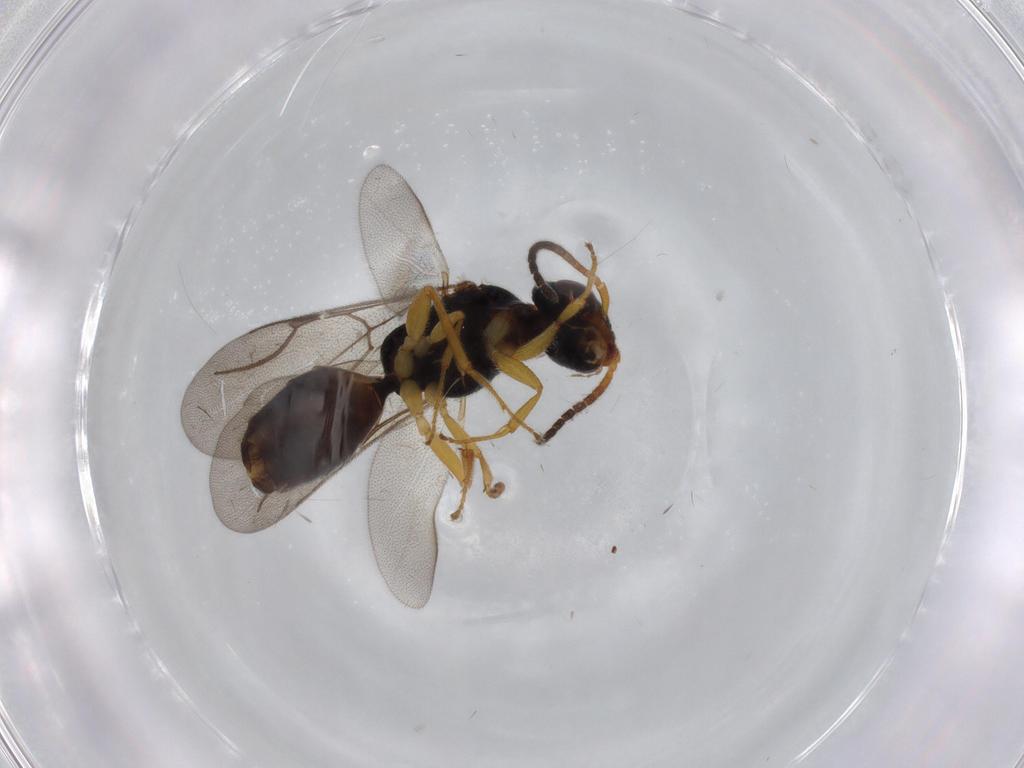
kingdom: Animalia
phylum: Arthropoda
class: Insecta
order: Hymenoptera
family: Bethylidae
